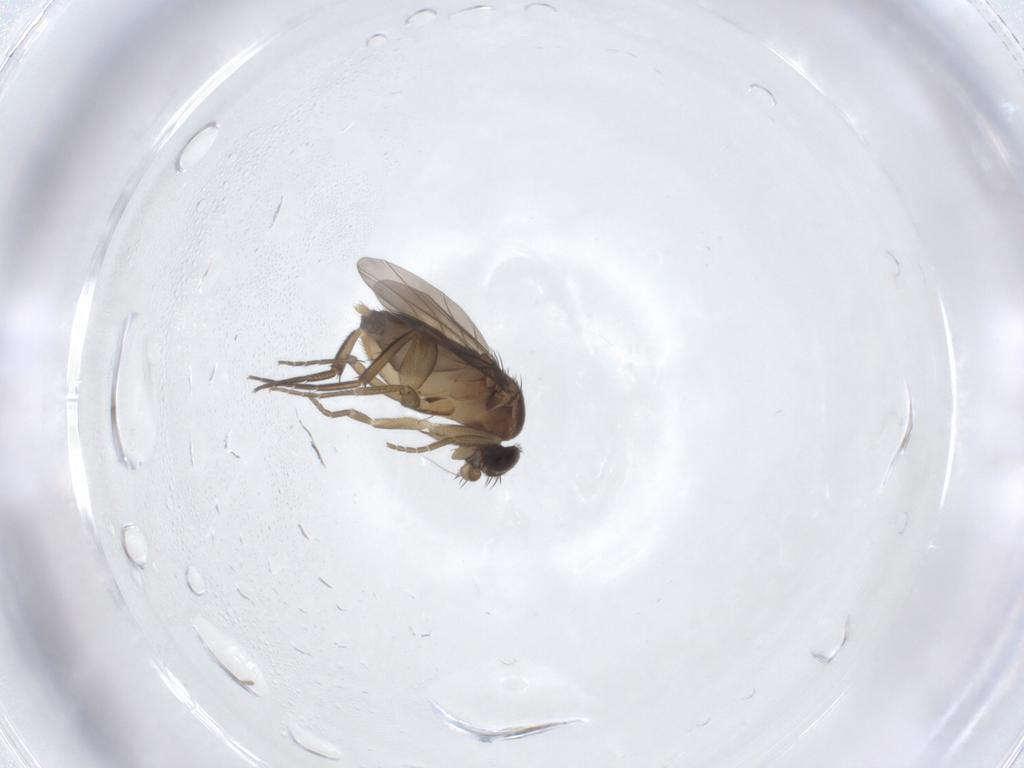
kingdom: Animalia
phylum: Arthropoda
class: Insecta
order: Diptera
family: Phoridae
